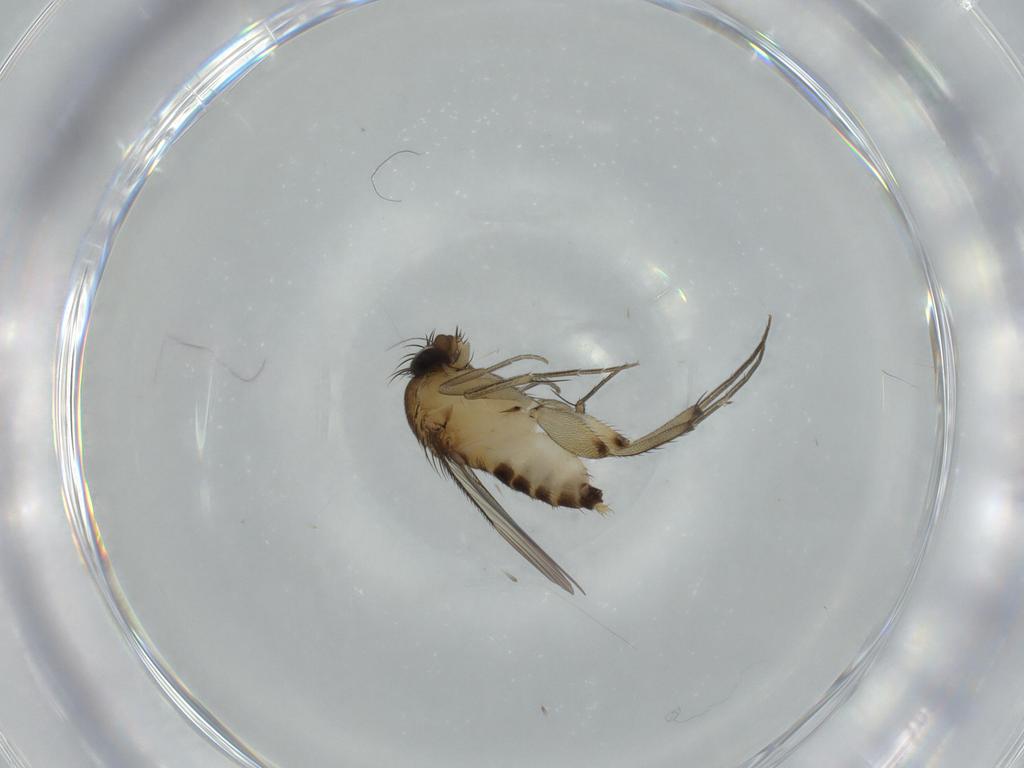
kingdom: Animalia
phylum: Arthropoda
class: Insecta
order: Diptera
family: Phoridae
